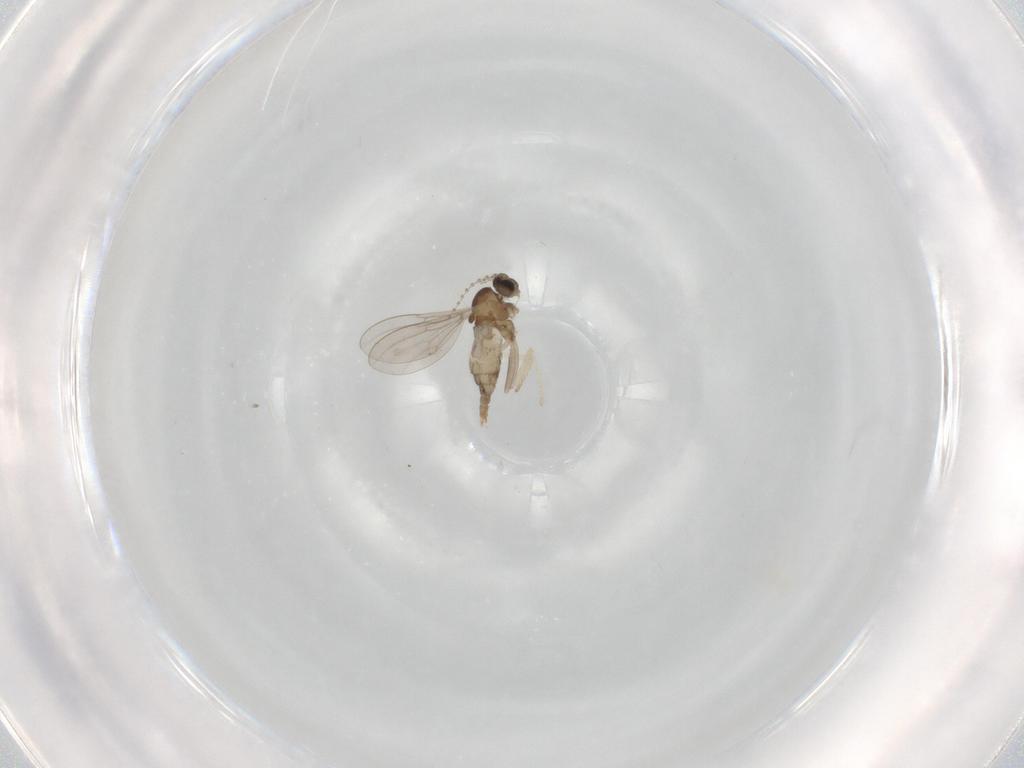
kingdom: Animalia
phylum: Arthropoda
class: Insecta
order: Diptera
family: Cecidomyiidae
